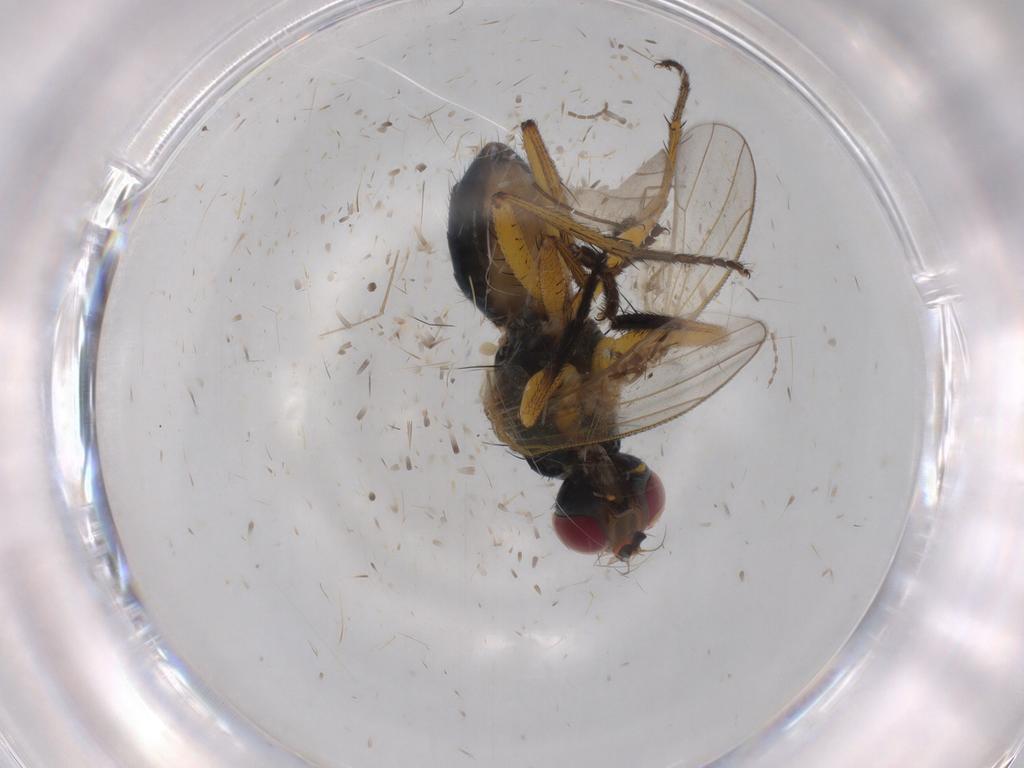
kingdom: Animalia
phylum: Arthropoda
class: Insecta
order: Diptera
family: Muscidae
